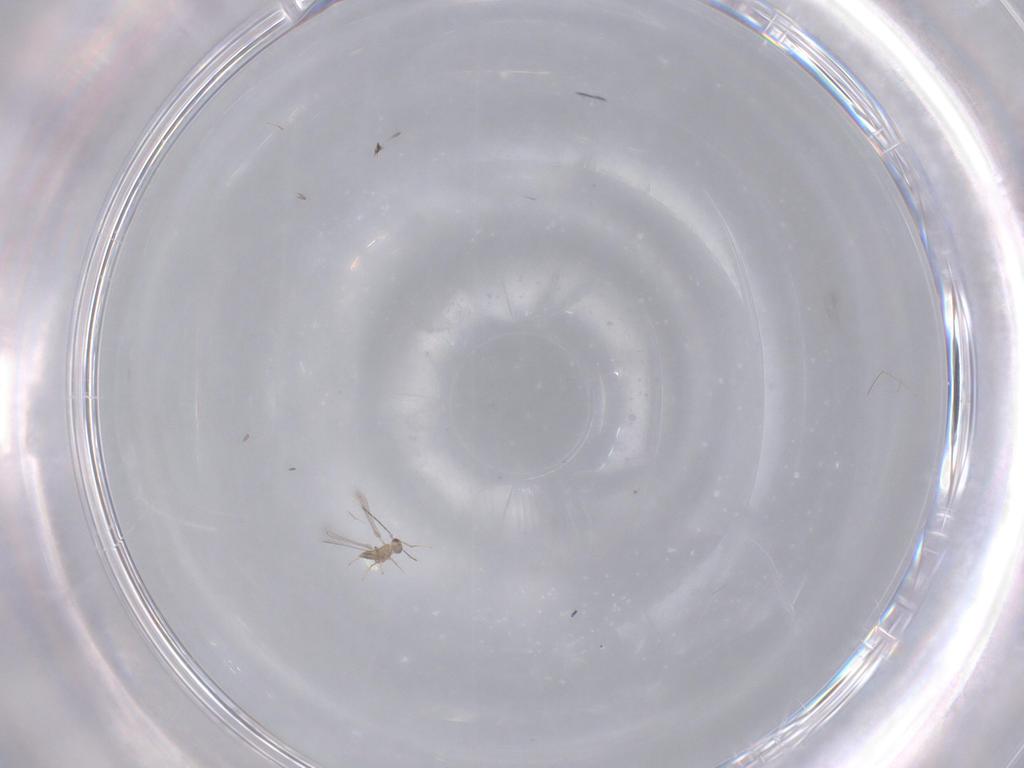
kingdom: Animalia
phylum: Arthropoda
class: Insecta
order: Hymenoptera
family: Mymaridae
